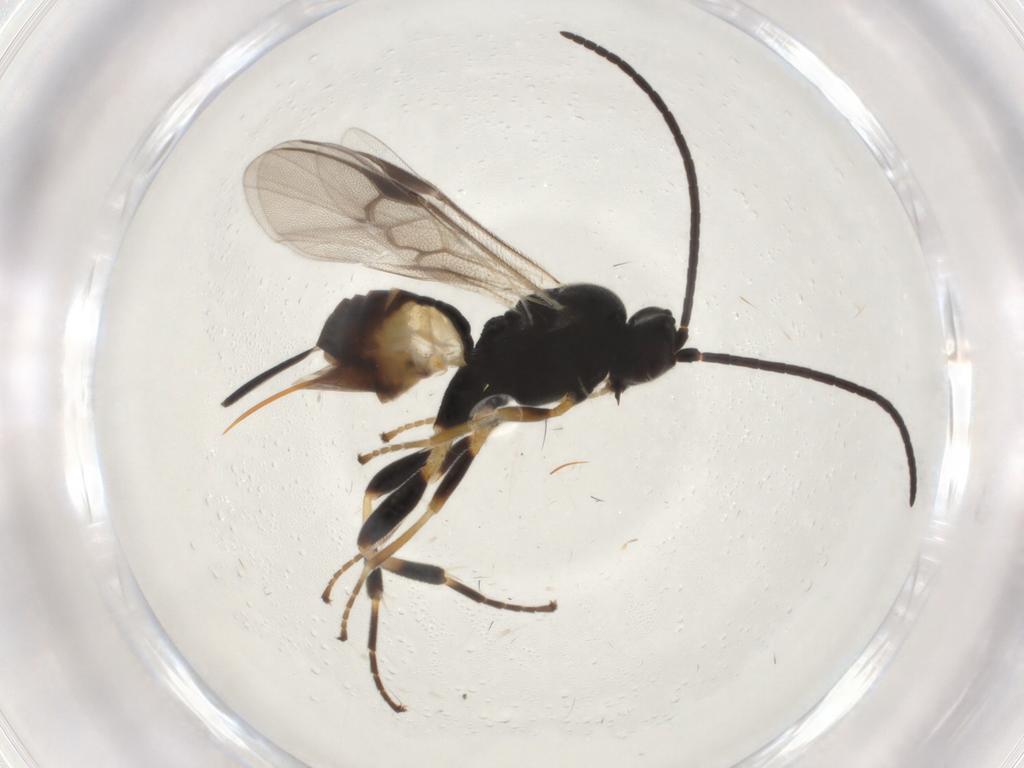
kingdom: Animalia
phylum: Arthropoda
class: Insecta
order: Hymenoptera
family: Braconidae
